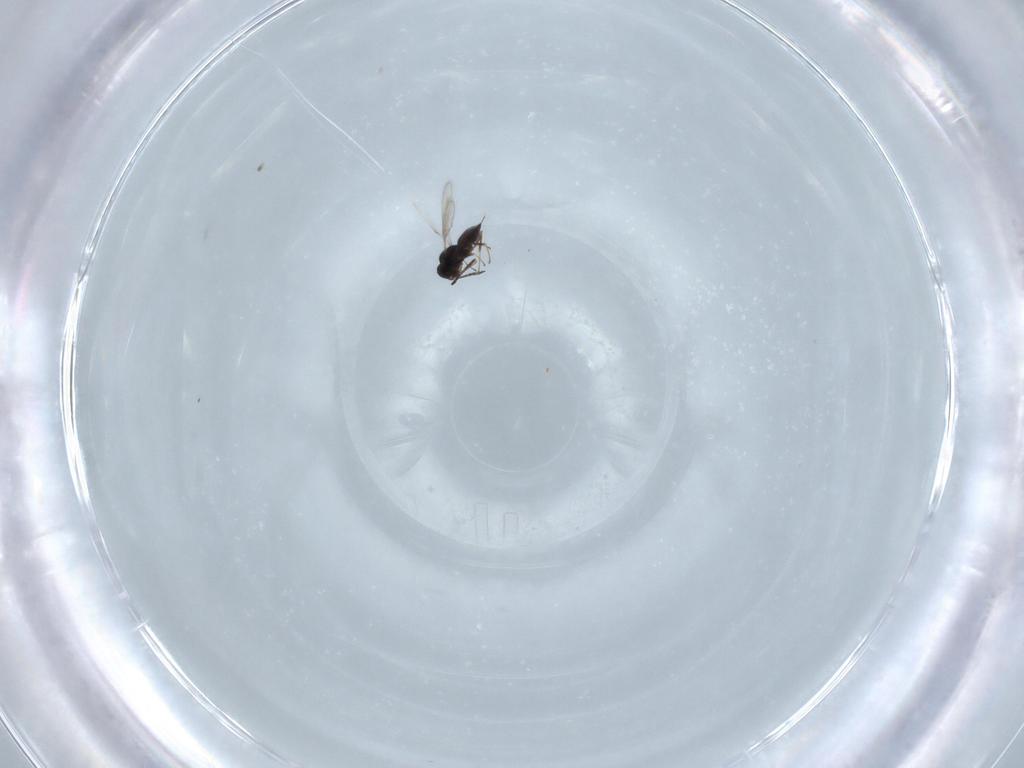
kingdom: Animalia
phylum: Arthropoda
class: Insecta
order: Hymenoptera
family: Scelionidae
